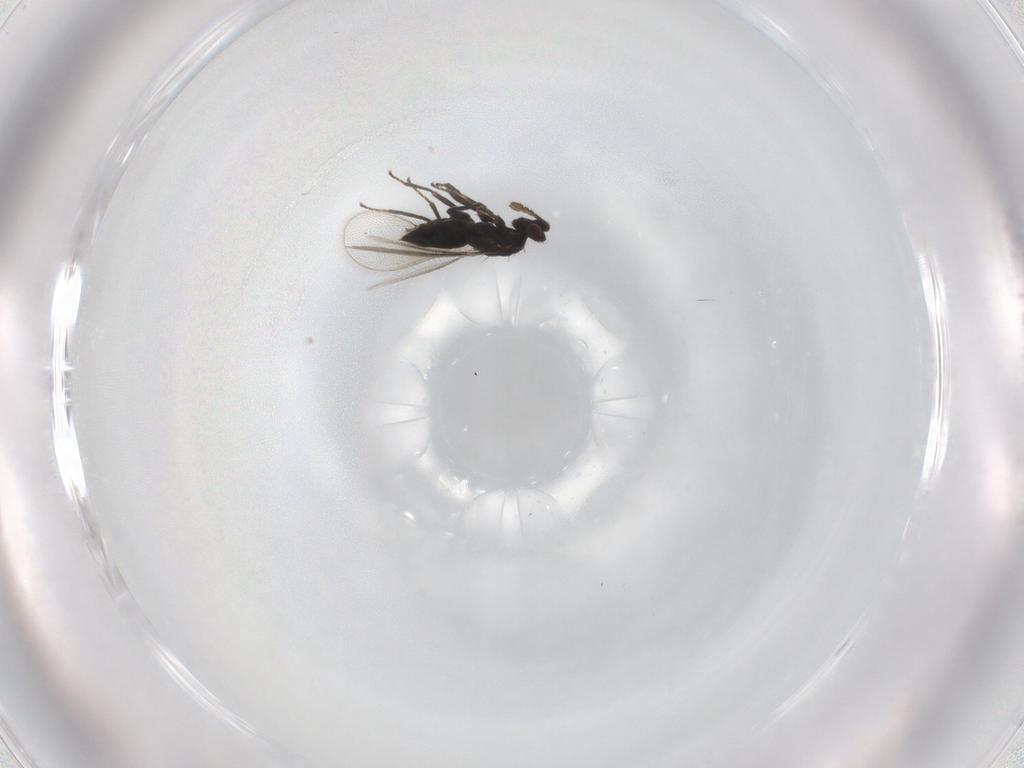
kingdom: Animalia
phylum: Arthropoda
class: Insecta
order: Hymenoptera
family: Eulophidae
